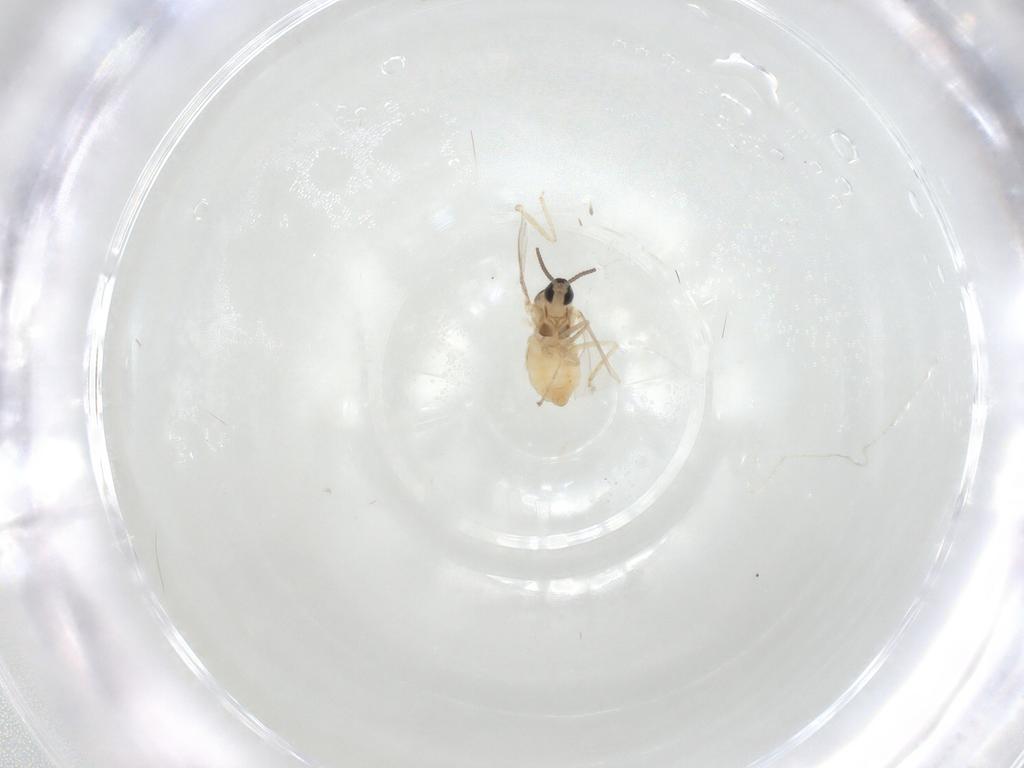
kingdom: Animalia
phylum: Arthropoda
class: Insecta
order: Diptera
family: Cecidomyiidae
